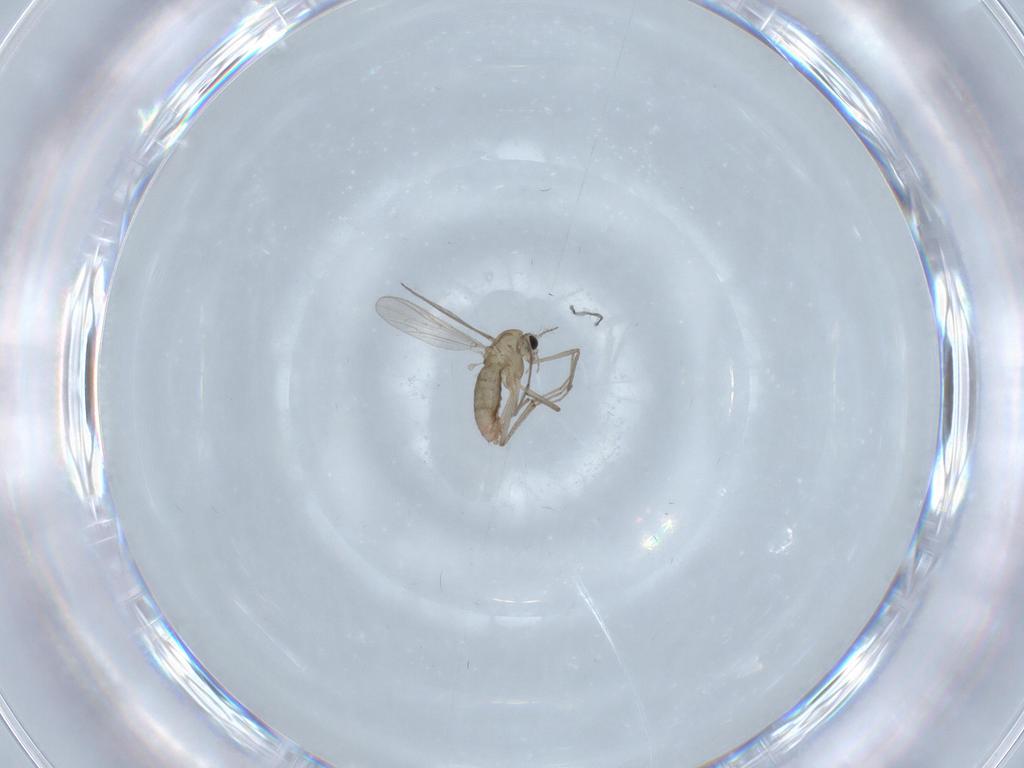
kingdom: Animalia
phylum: Arthropoda
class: Insecta
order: Diptera
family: Chironomidae
